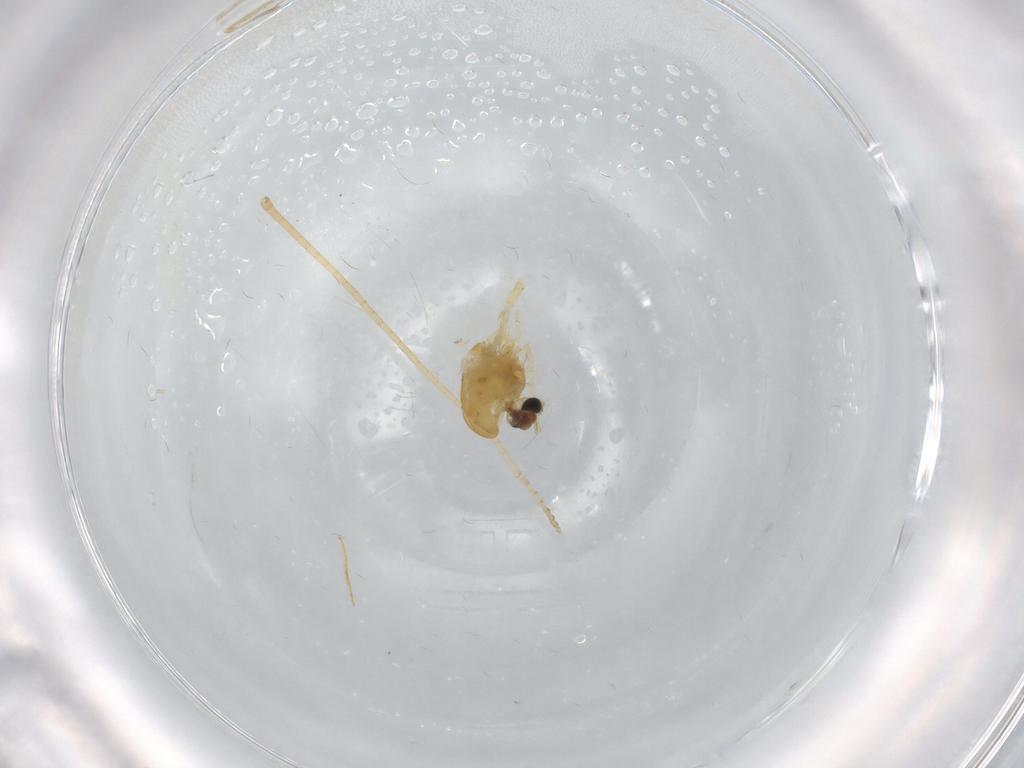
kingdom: Animalia
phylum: Arthropoda
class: Insecta
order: Diptera
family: Chironomidae
